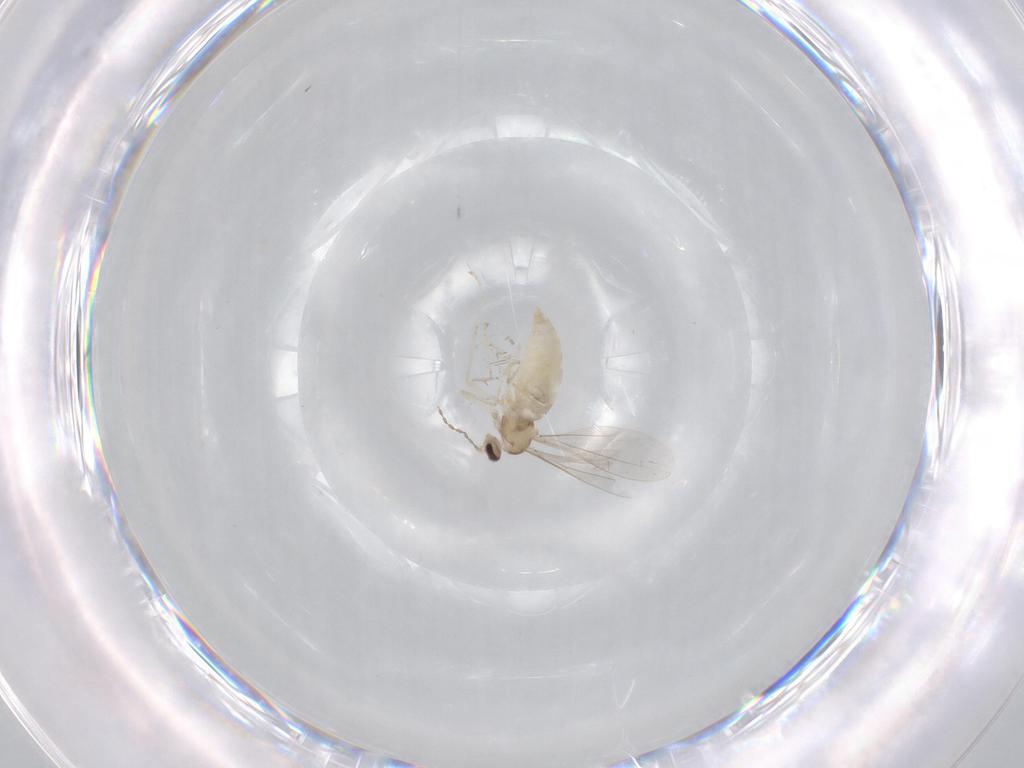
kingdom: Animalia
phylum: Arthropoda
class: Insecta
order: Diptera
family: Cecidomyiidae
